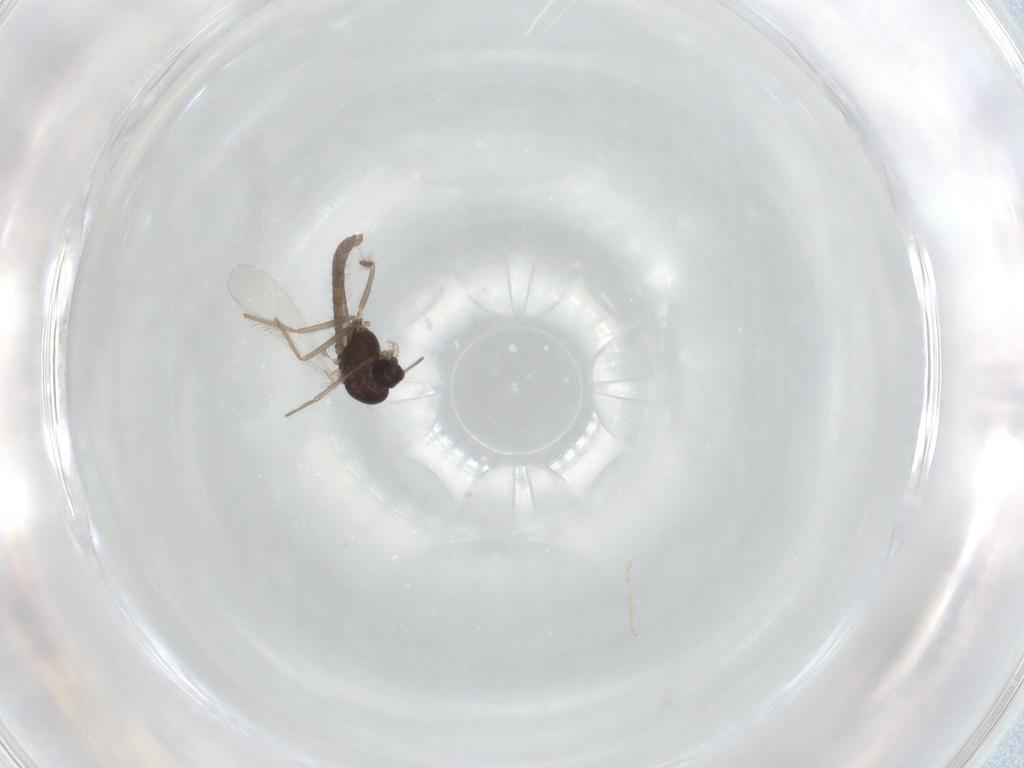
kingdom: Animalia
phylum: Arthropoda
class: Insecta
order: Diptera
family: Chironomidae
